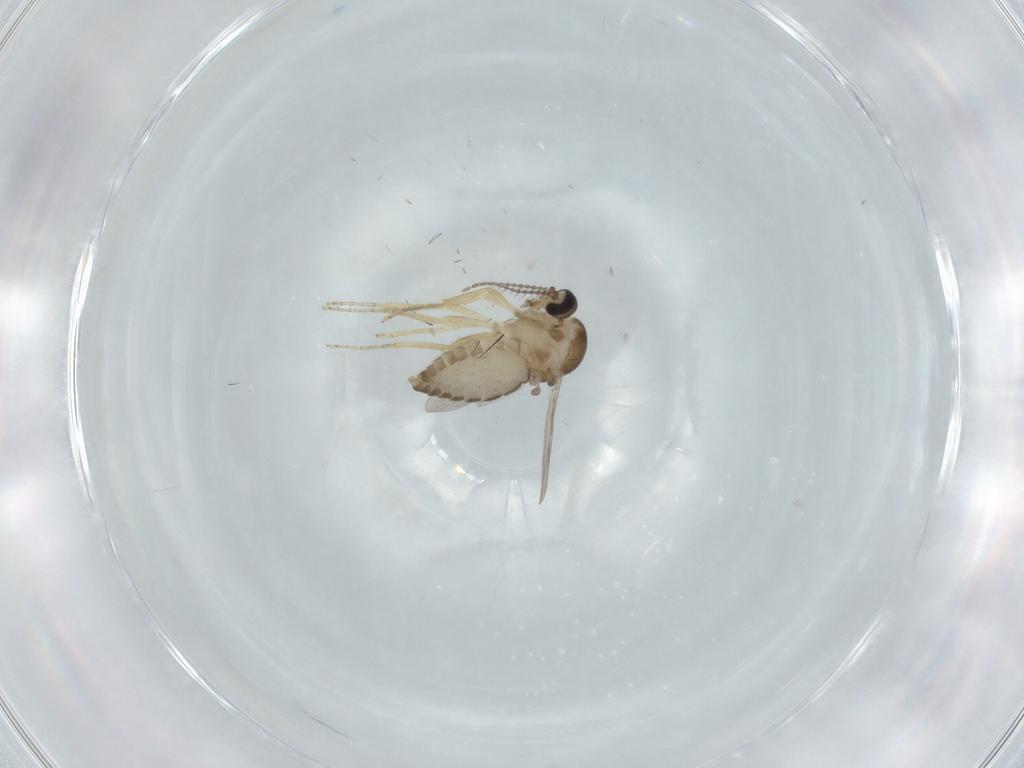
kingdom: Animalia
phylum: Arthropoda
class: Insecta
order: Diptera
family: Ceratopogonidae
